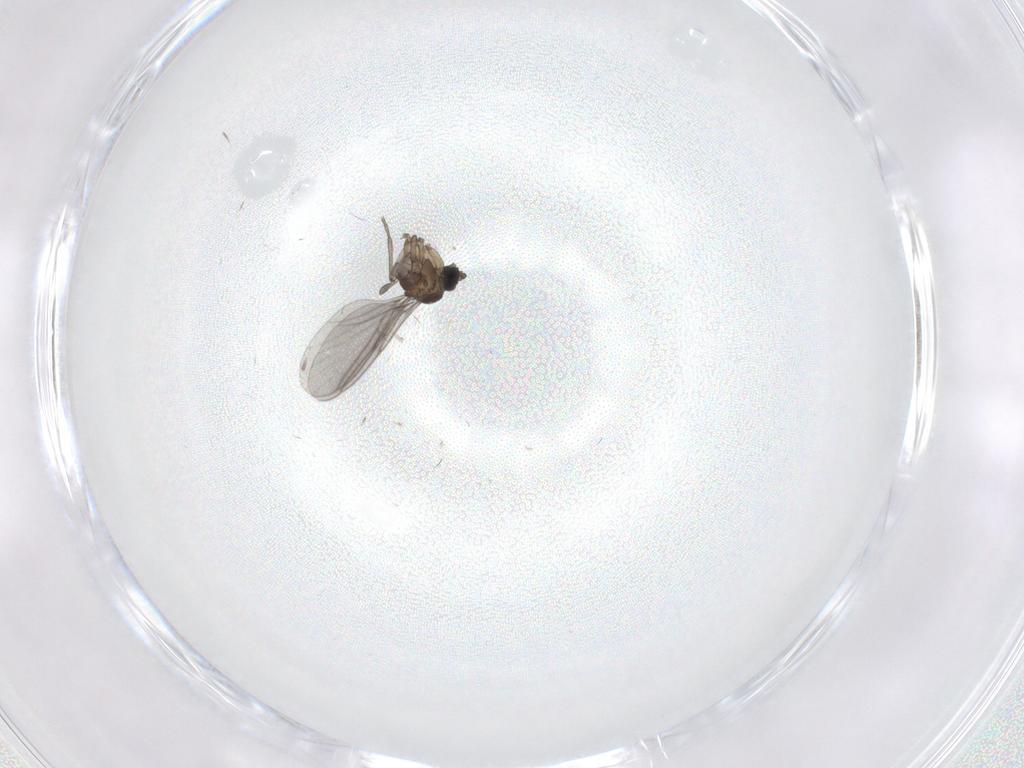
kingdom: Animalia
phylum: Arthropoda
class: Insecta
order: Diptera
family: Sciaridae
